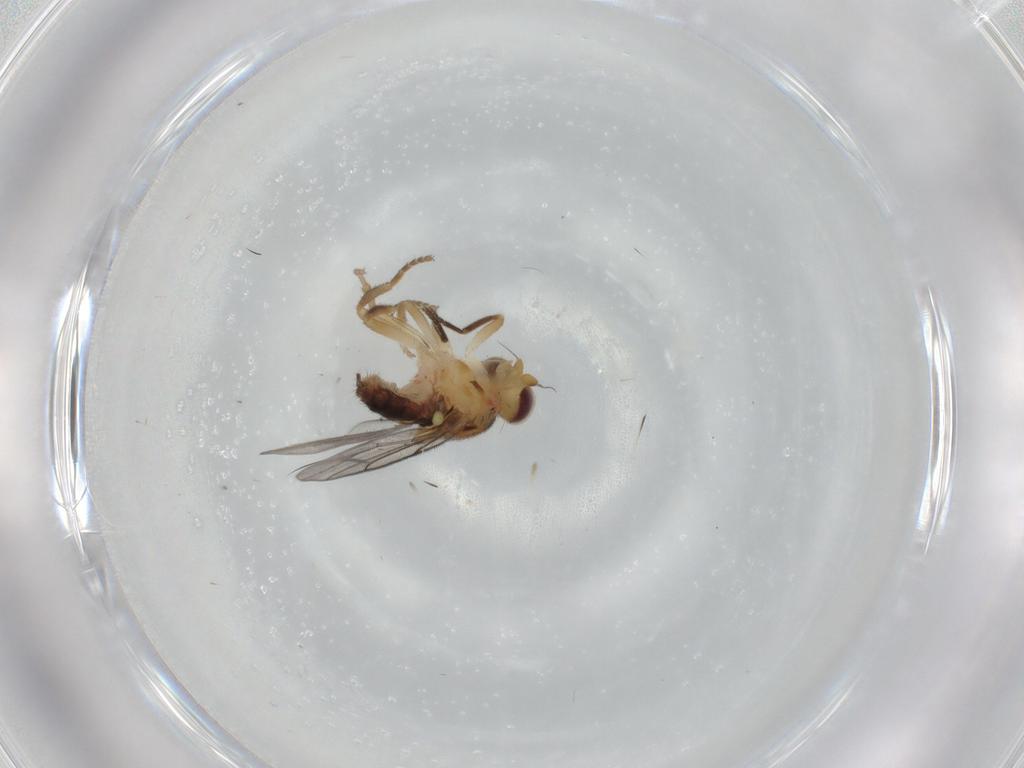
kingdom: Animalia
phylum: Arthropoda
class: Insecta
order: Diptera
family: Chloropidae
